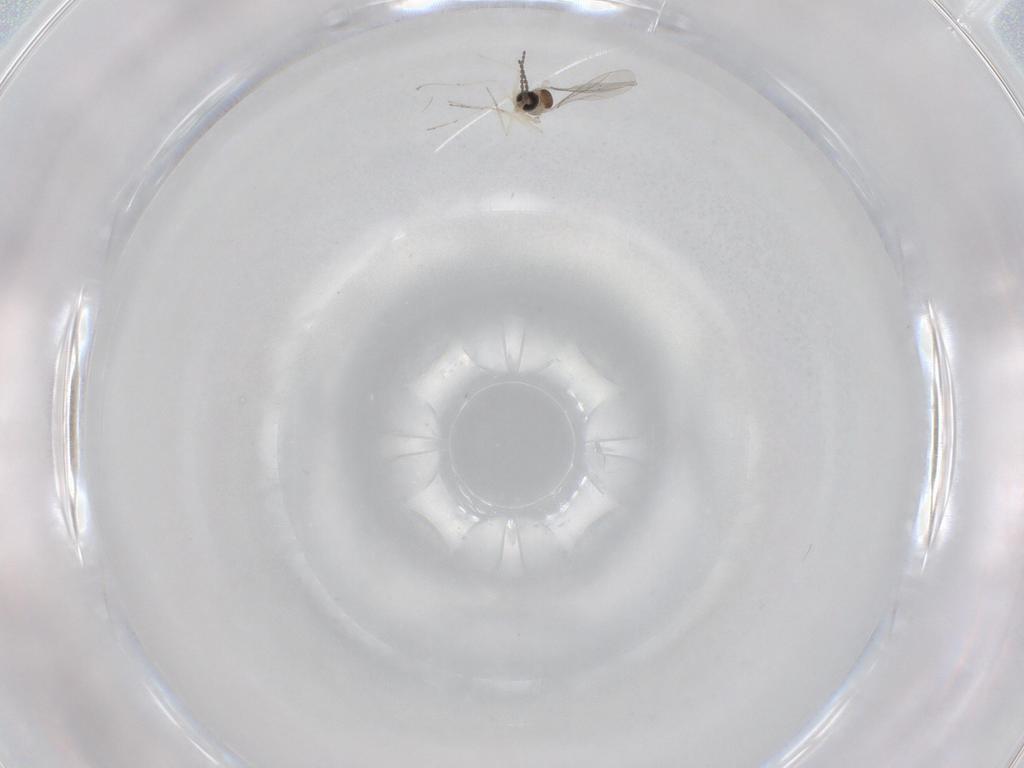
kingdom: Animalia
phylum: Arthropoda
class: Insecta
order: Diptera
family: Cecidomyiidae
